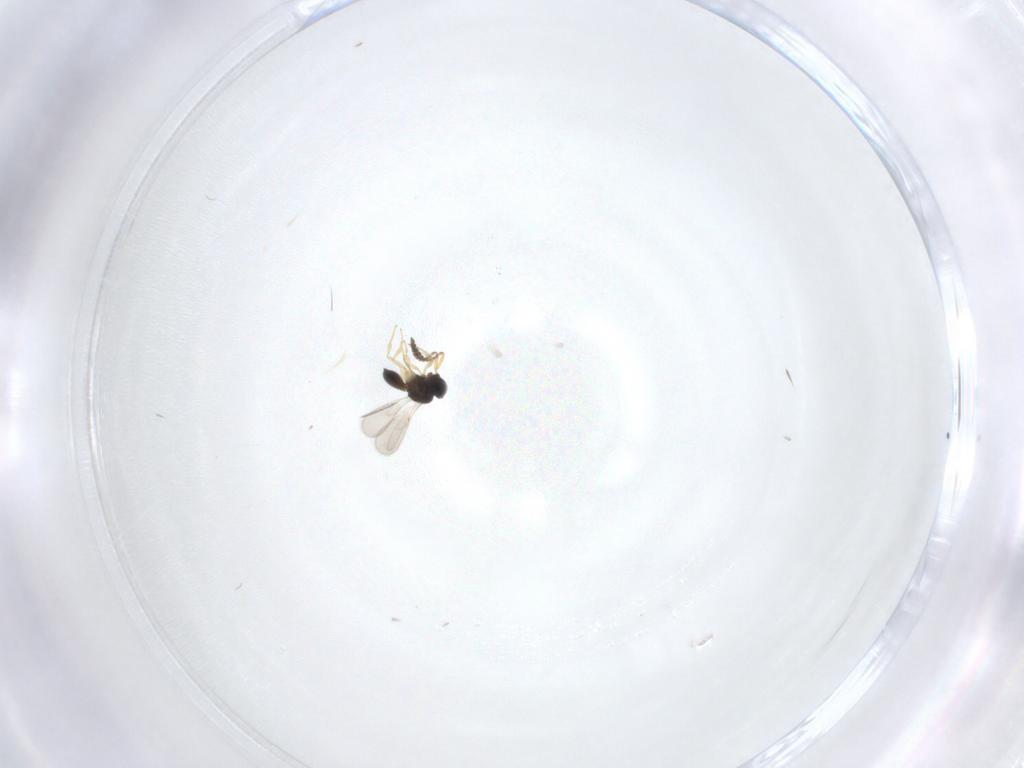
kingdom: Animalia
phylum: Arthropoda
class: Insecta
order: Hymenoptera
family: Scelionidae
